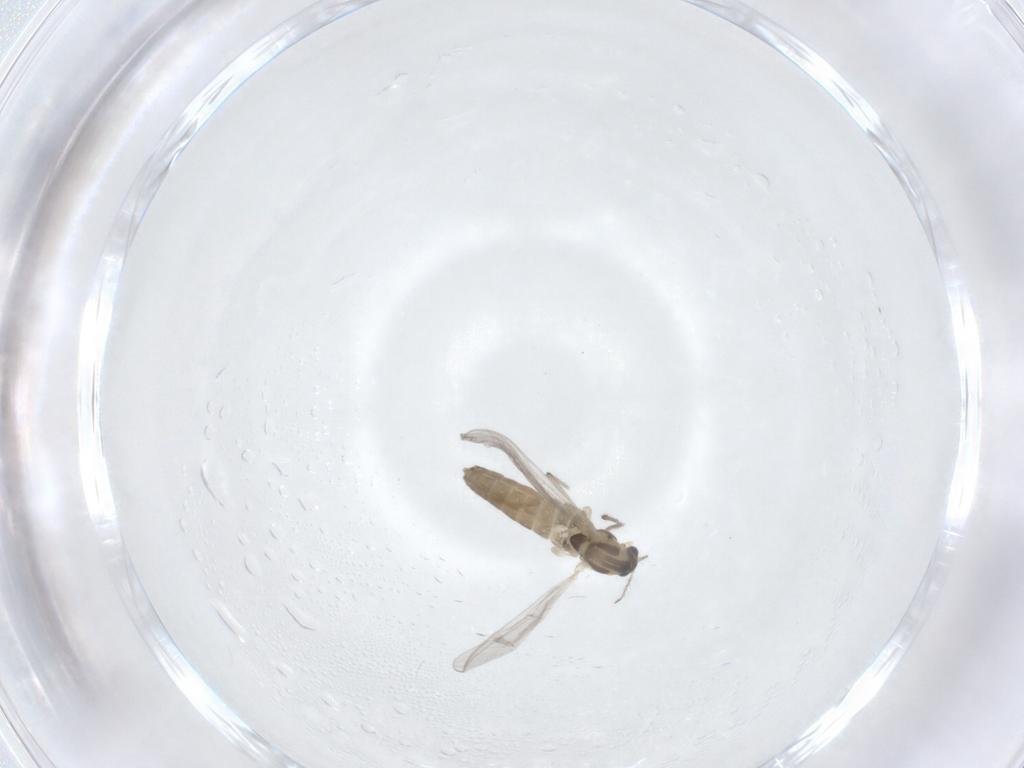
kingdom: Animalia
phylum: Arthropoda
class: Insecta
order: Diptera
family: Chironomidae
